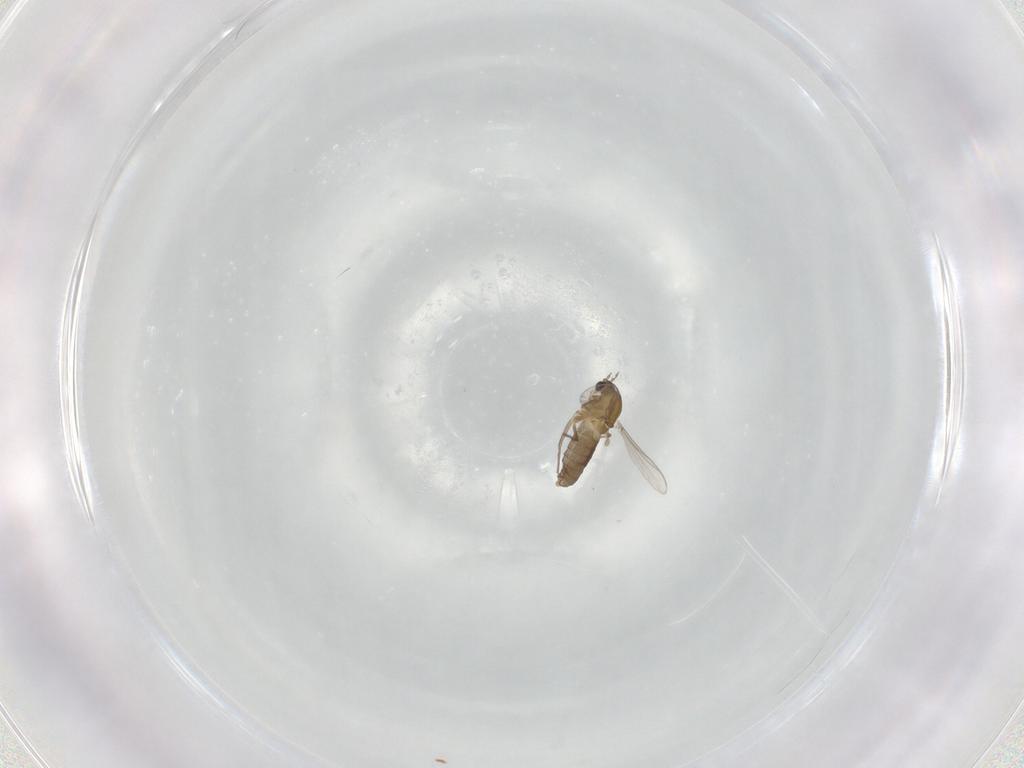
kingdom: Animalia
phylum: Arthropoda
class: Insecta
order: Diptera
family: Chironomidae
